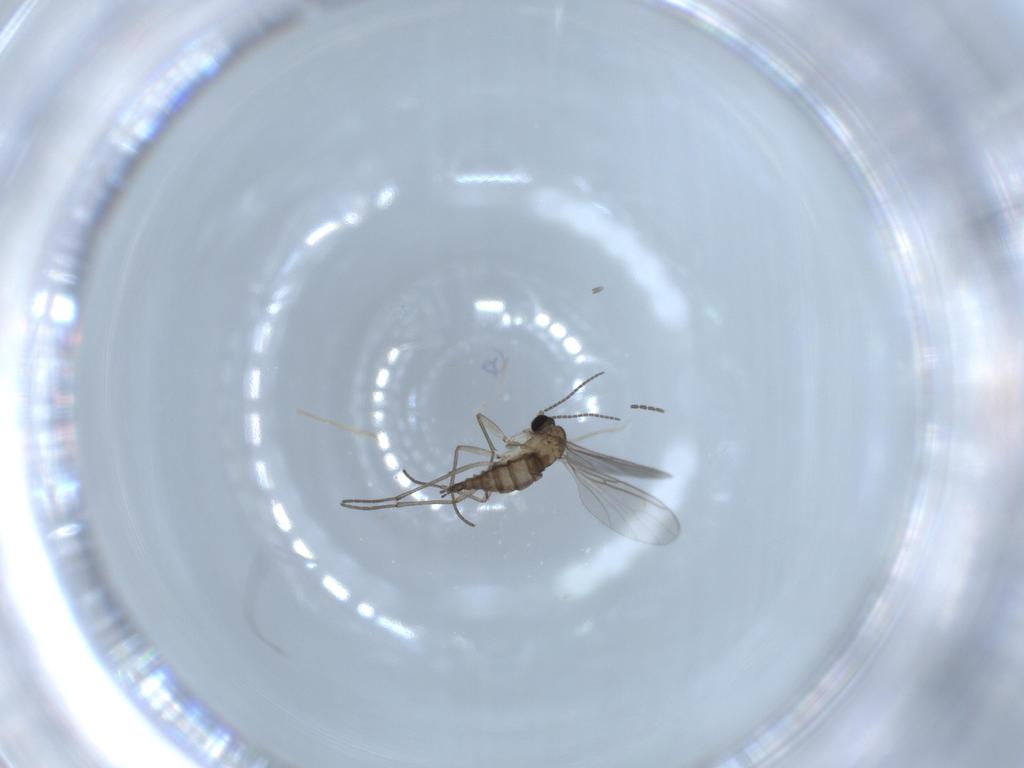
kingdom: Animalia
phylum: Arthropoda
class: Insecta
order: Diptera
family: Sciaridae
